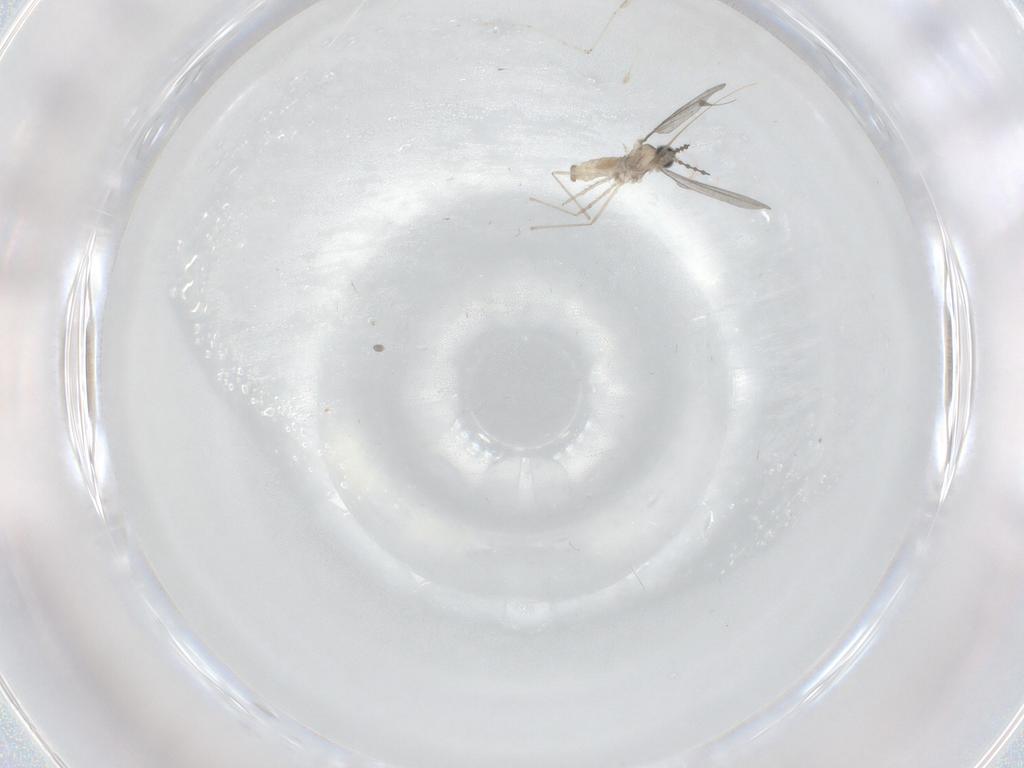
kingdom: Animalia
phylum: Arthropoda
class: Insecta
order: Diptera
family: Cecidomyiidae
